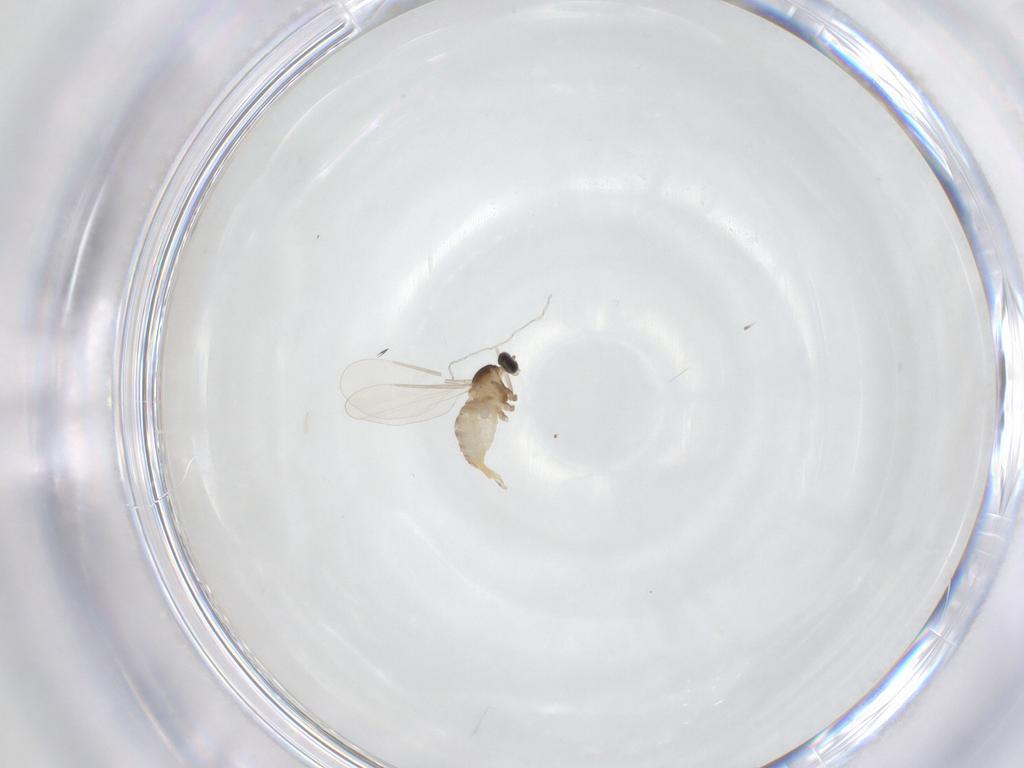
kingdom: Animalia
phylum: Arthropoda
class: Insecta
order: Diptera
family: Cecidomyiidae
